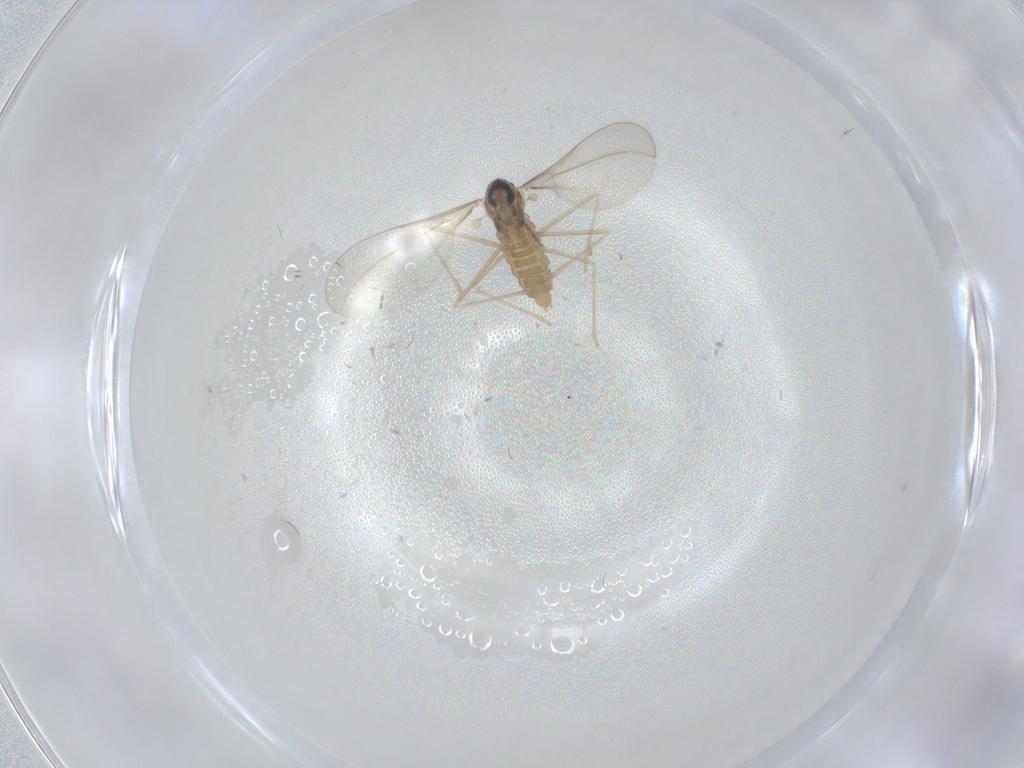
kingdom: Animalia
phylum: Arthropoda
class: Insecta
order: Diptera
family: Cecidomyiidae
